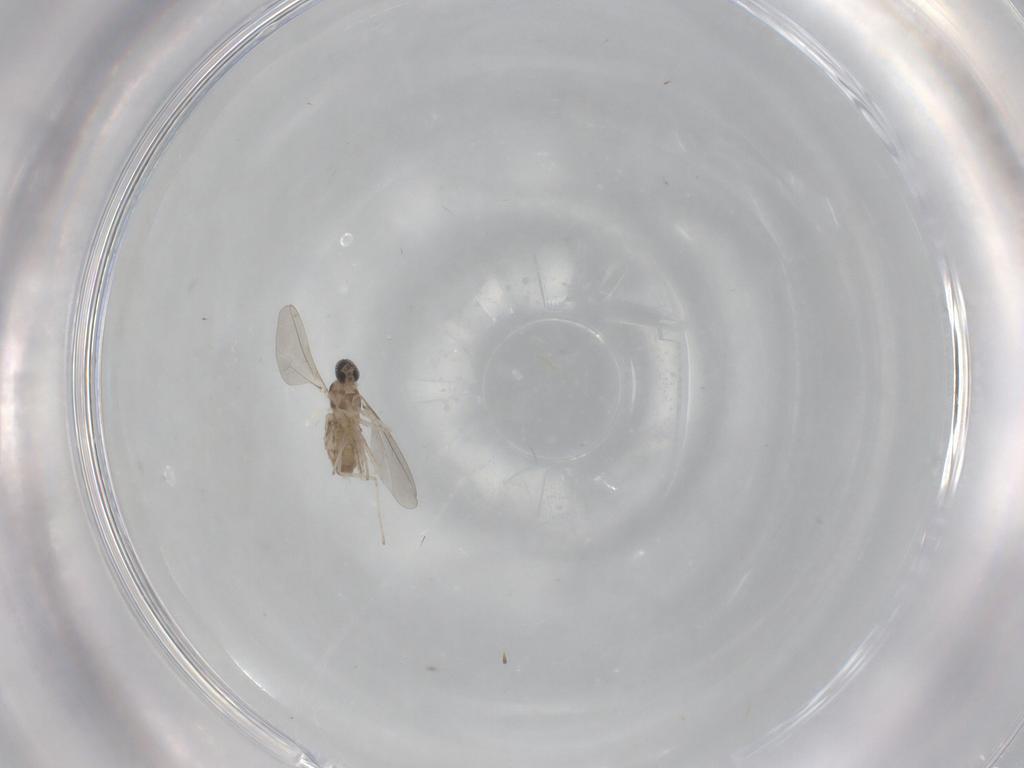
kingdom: Animalia
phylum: Arthropoda
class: Insecta
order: Diptera
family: Cecidomyiidae
